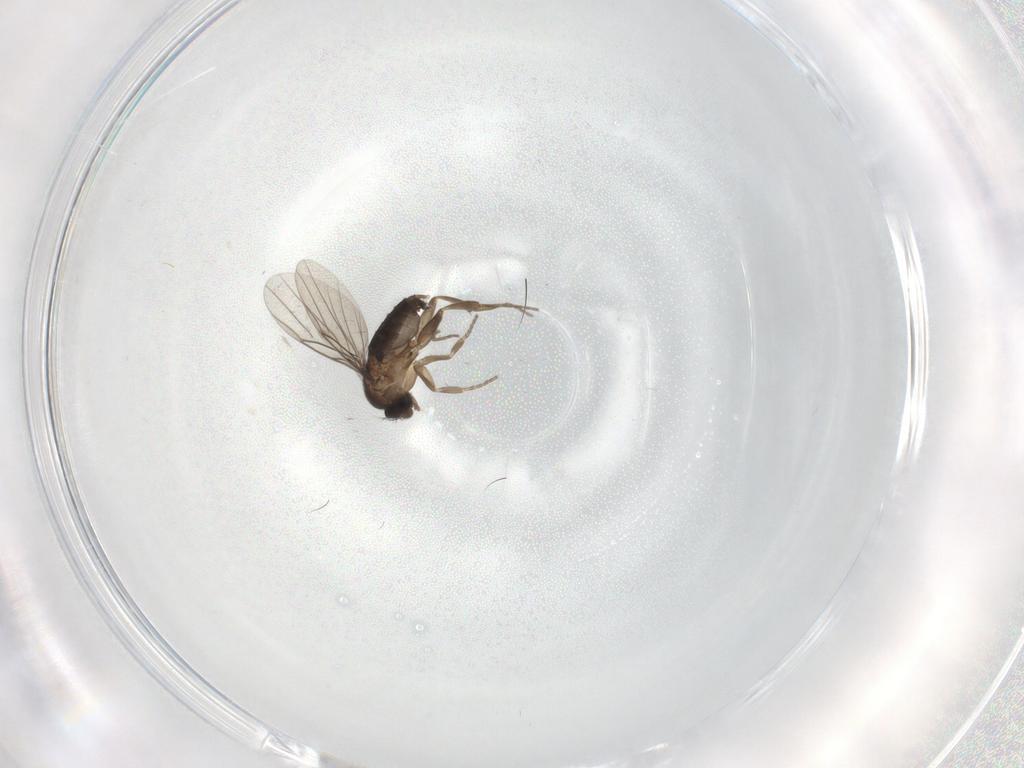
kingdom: Animalia
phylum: Arthropoda
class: Insecta
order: Diptera
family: Phoridae
